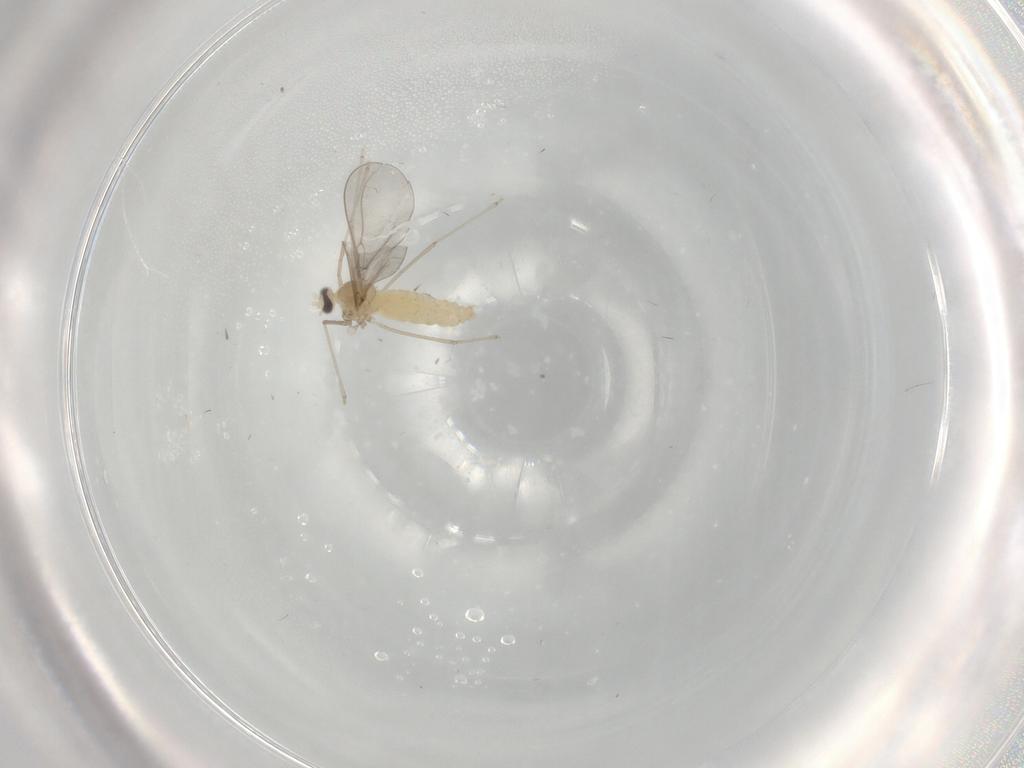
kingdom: Animalia
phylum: Arthropoda
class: Insecta
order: Diptera
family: Cecidomyiidae
